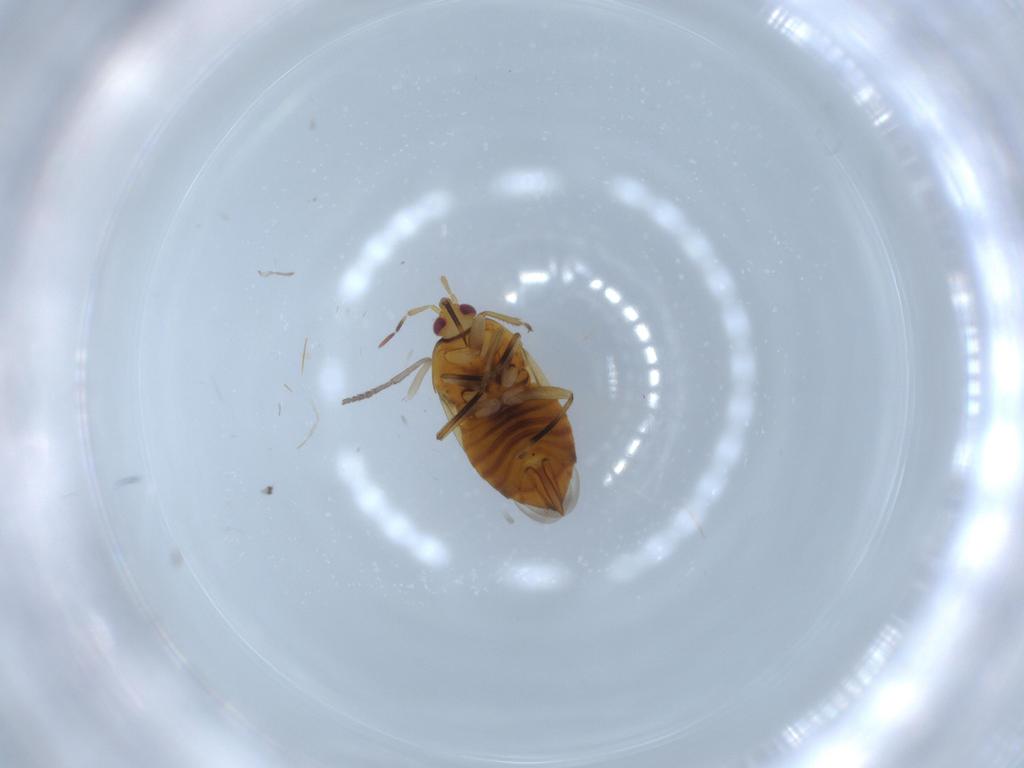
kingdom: Animalia
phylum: Arthropoda
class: Insecta
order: Hemiptera
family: Anthocoridae
